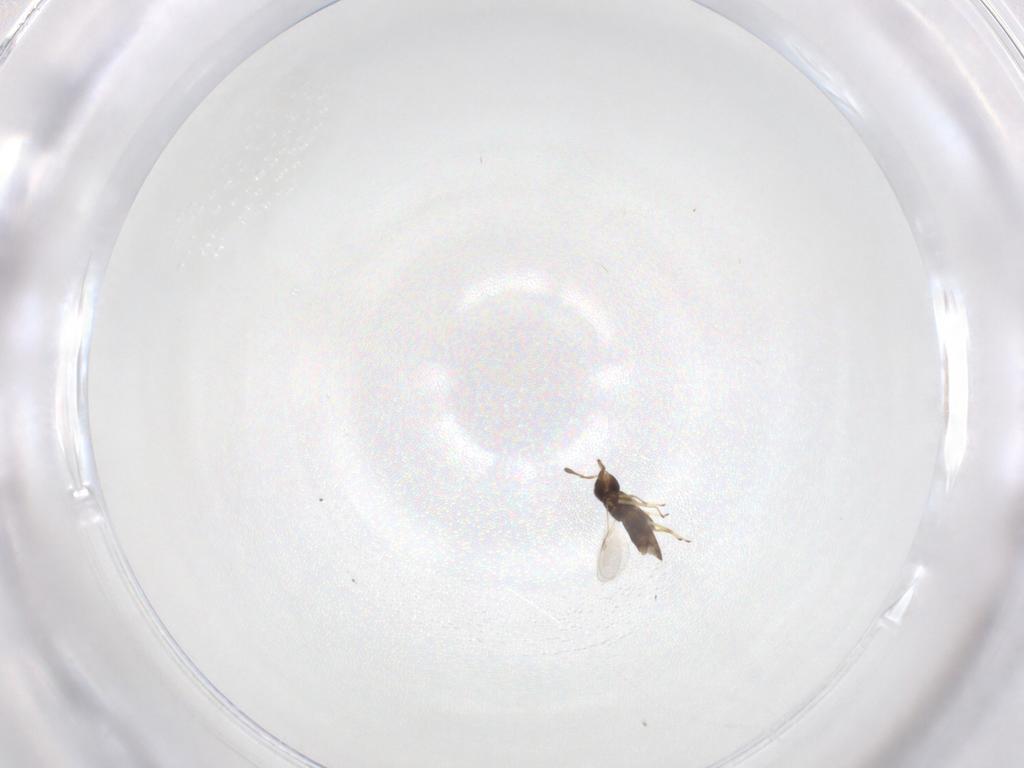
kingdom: Animalia
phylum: Arthropoda
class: Insecta
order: Hymenoptera
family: Encyrtidae
